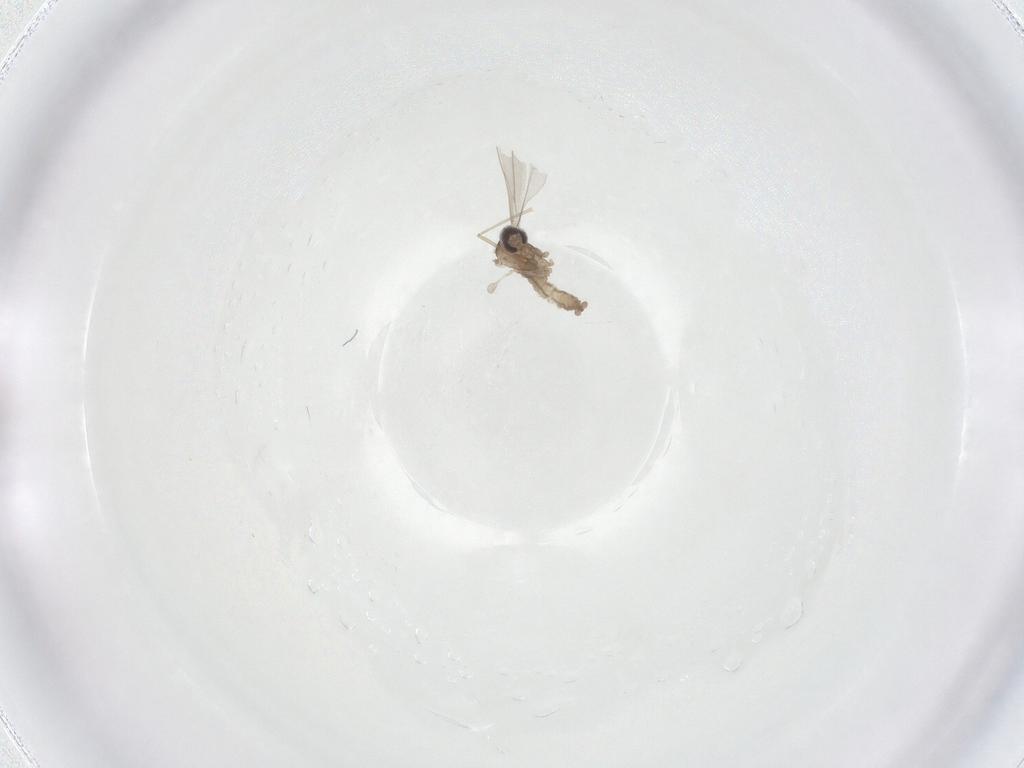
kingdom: Animalia
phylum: Arthropoda
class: Insecta
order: Diptera
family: Cecidomyiidae
